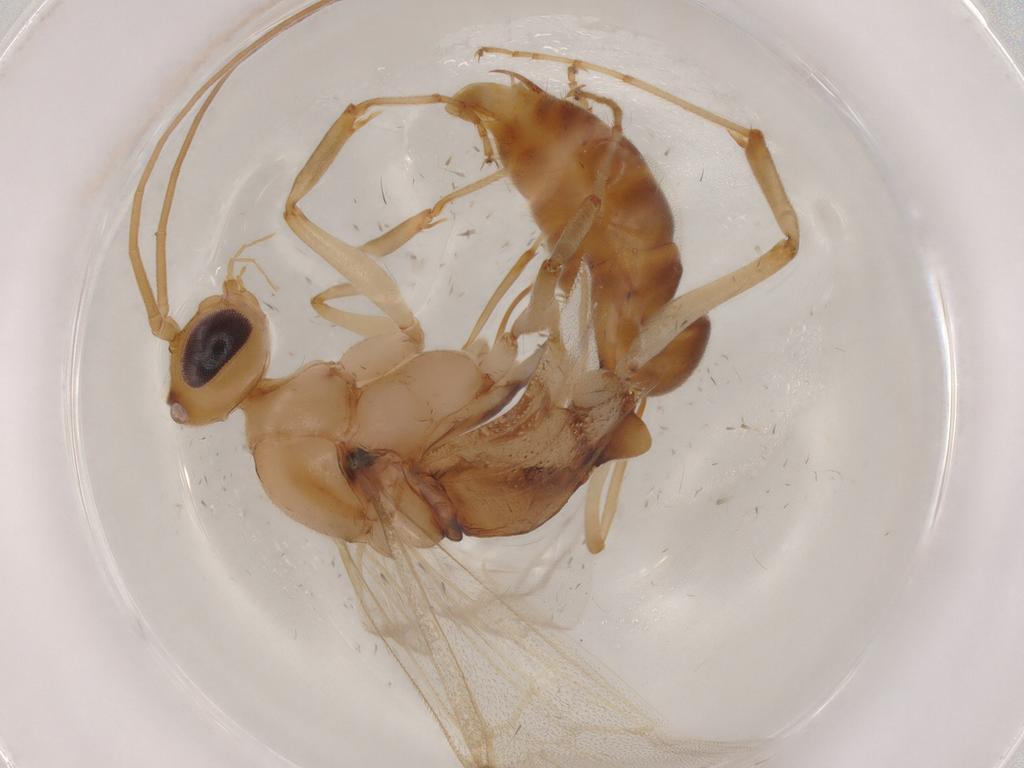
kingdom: Animalia
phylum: Arthropoda
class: Insecta
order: Hymenoptera
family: Formicidae
